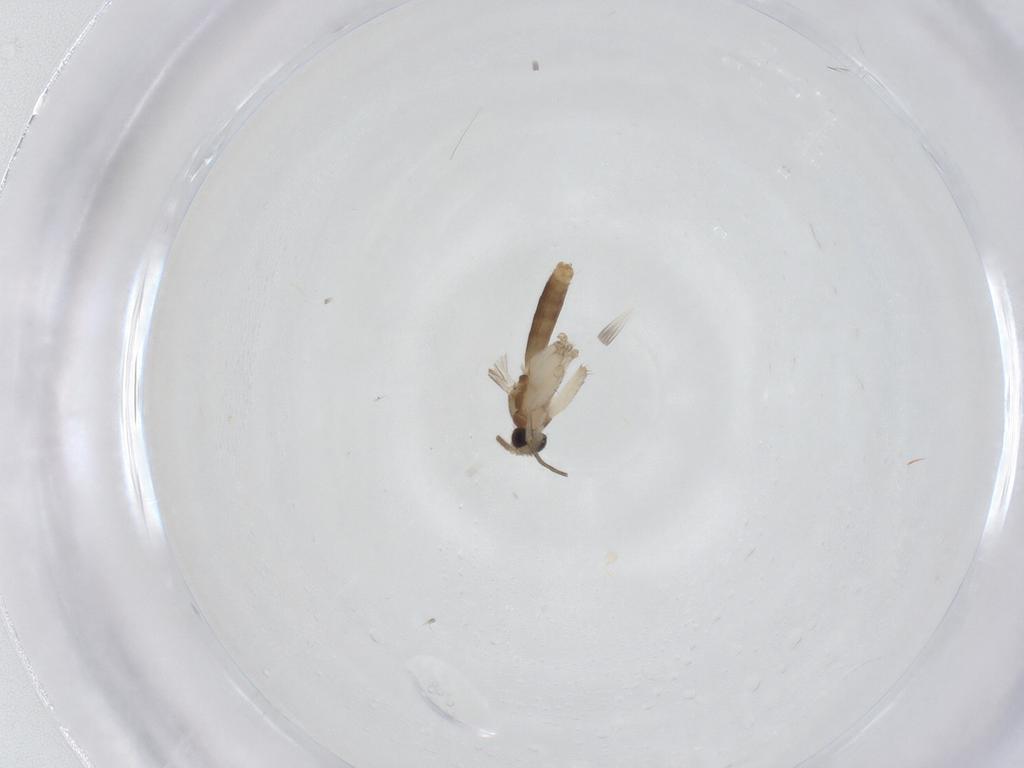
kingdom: Animalia
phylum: Arthropoda
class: Insecta
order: Diptera
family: Mycetophilidae
